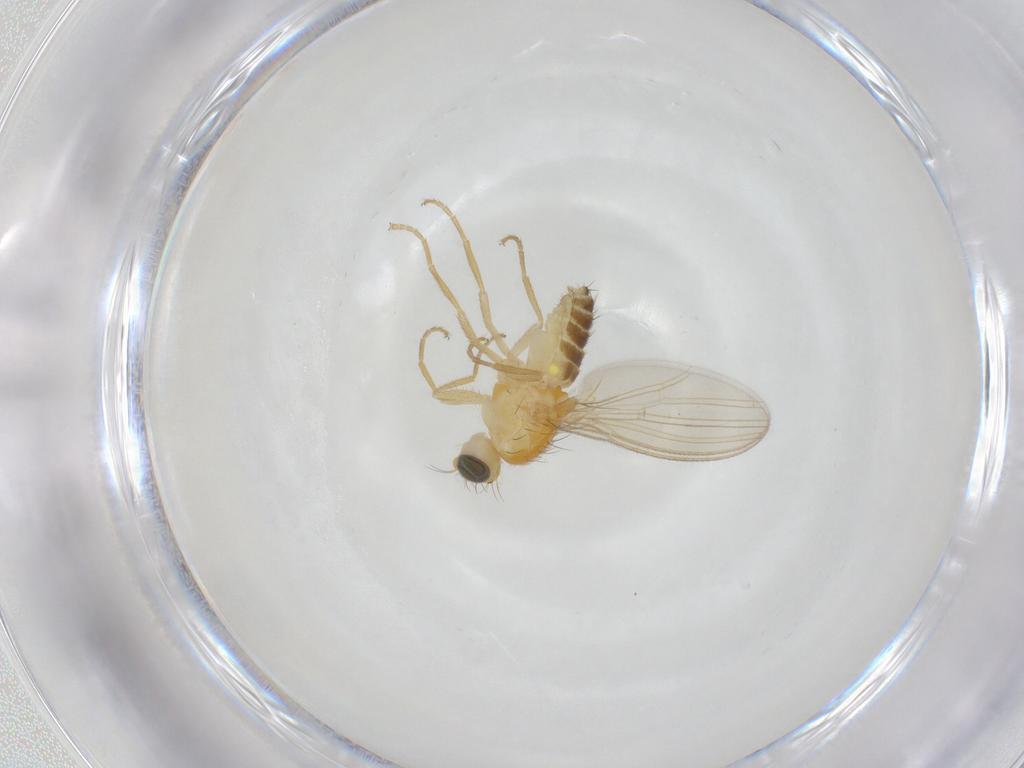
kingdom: Animalia
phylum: Arthropoda
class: Insecta
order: Diptera
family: Chyromyidae
